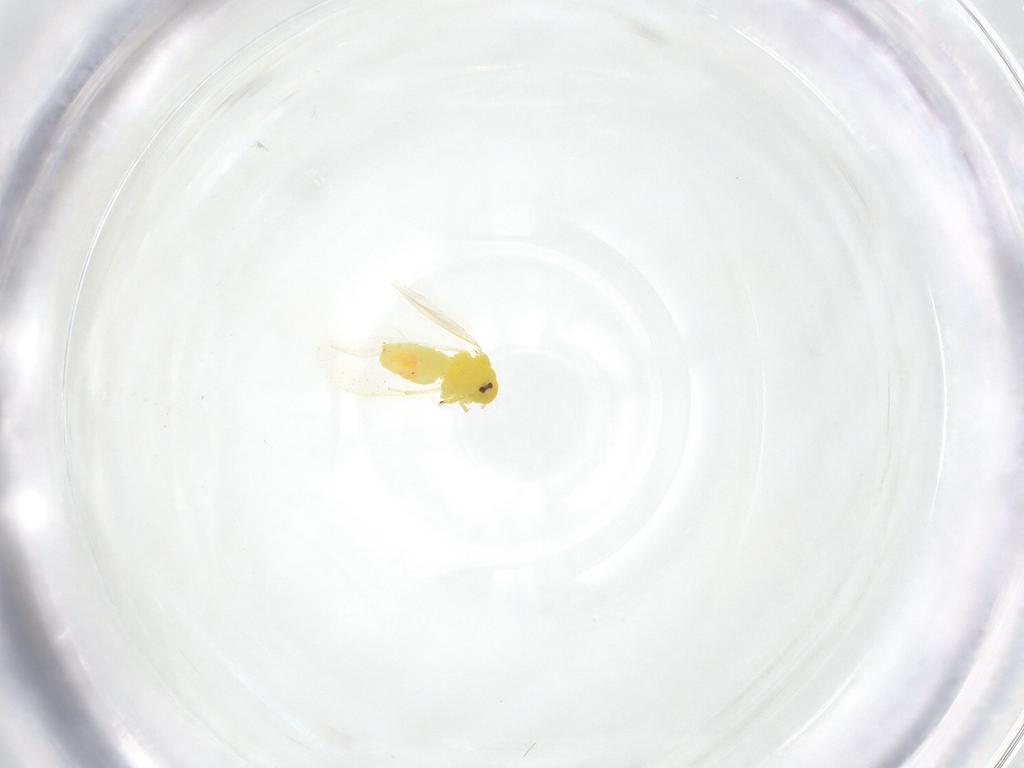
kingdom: Animalia
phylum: Arthropoda
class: Insecta
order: Hemiptera
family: Aleyrodidae
